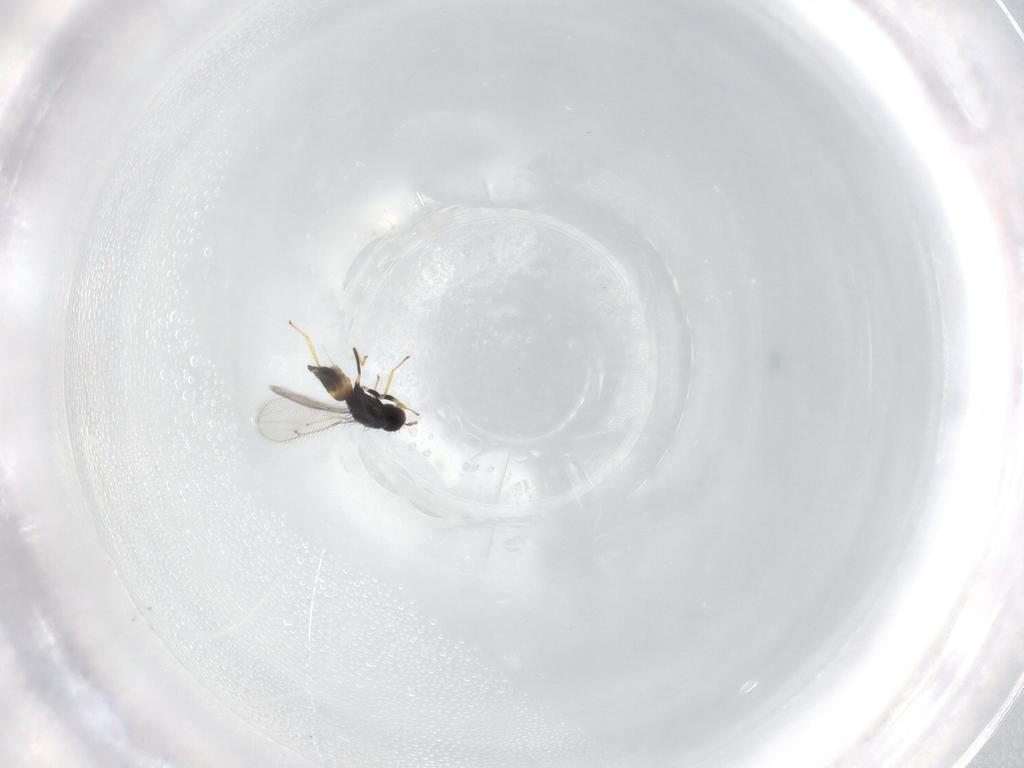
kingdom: Animalia
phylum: Arthropoda
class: Insecta
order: Hymenoptera
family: Eulophidae
